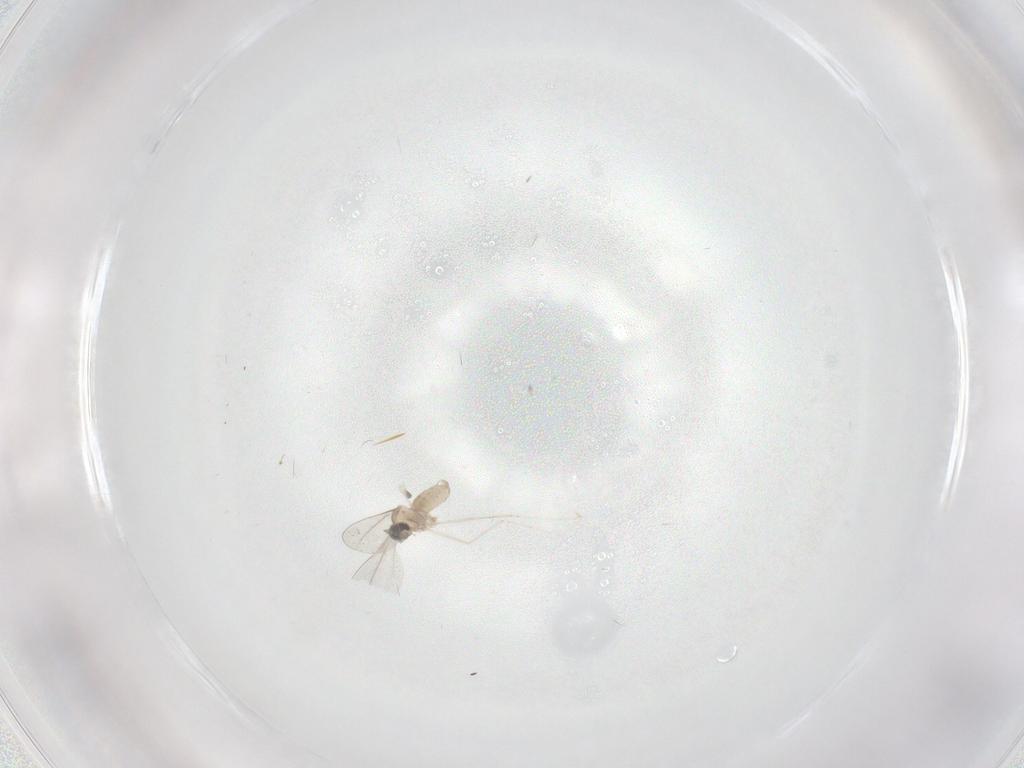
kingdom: Animalia
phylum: Arthropoda
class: Insecta
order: Diptera
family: Cecidomyiidae
